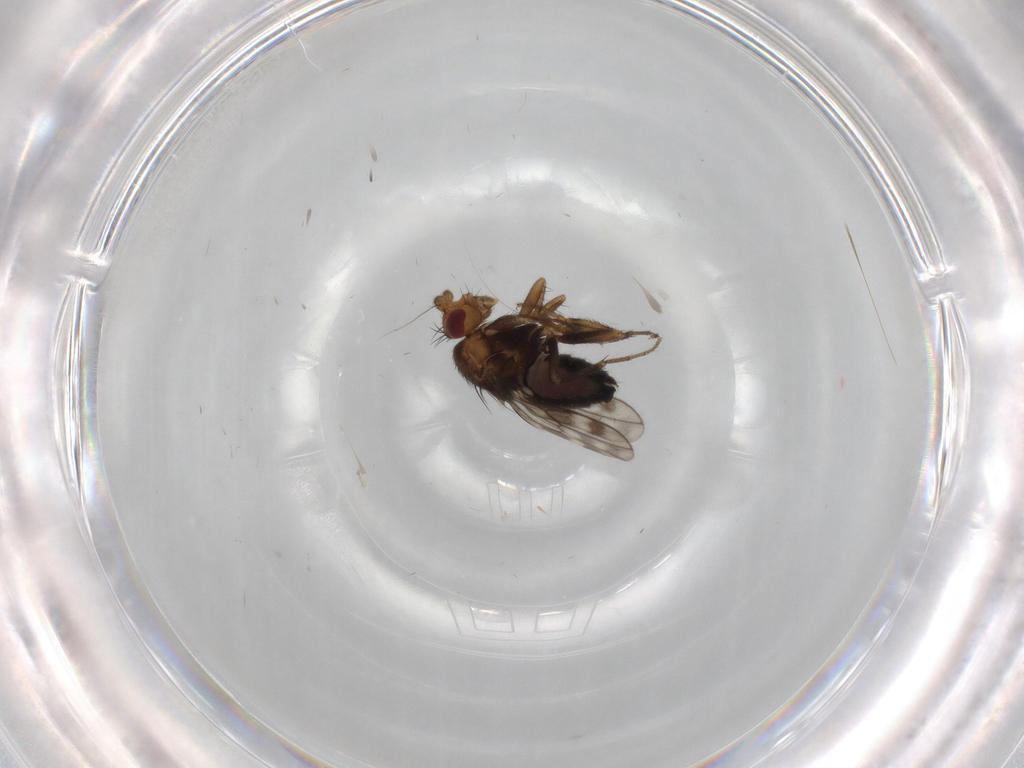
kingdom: Animalia
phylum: Arthropoda
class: Insecta
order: Diptera
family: Sphaeroceridae
